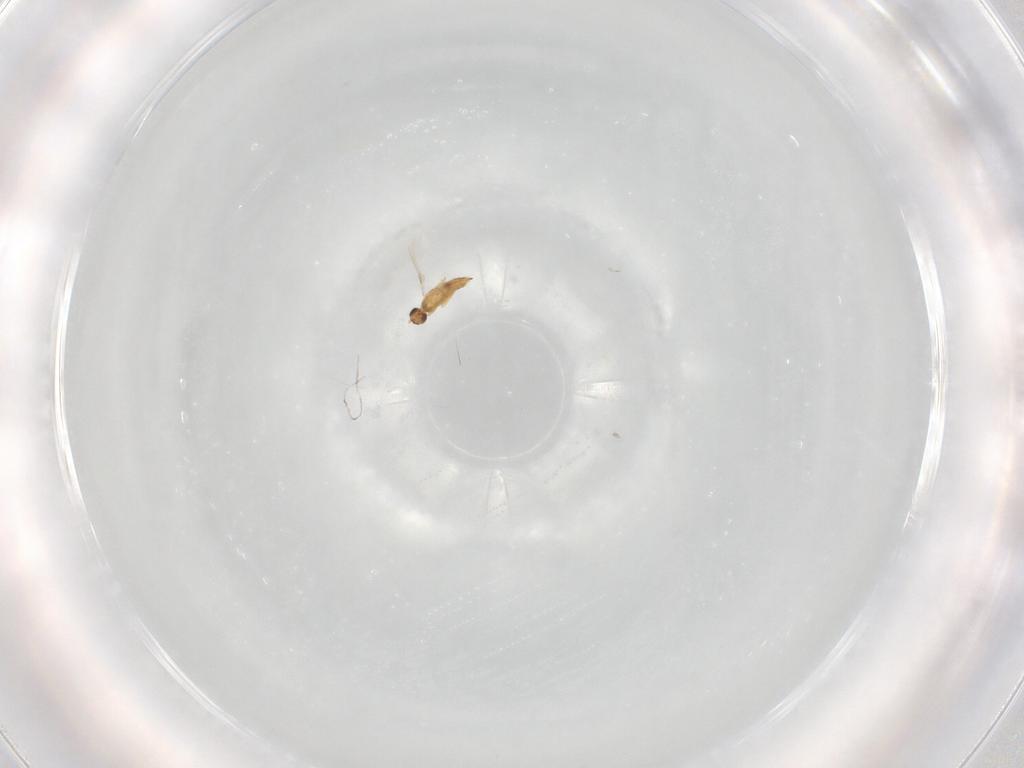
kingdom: Animalia
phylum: Arthropoda
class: Insecta
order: Hymenoptera
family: Mymaridae
